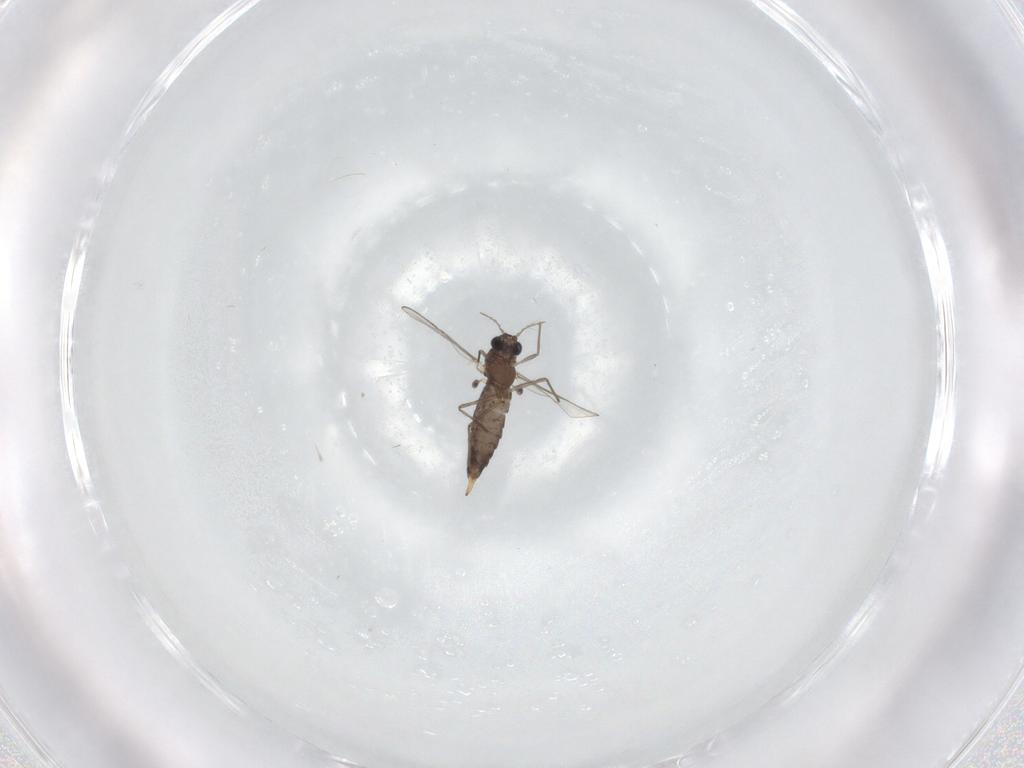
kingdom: Animalia
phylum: Arthropoda
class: Insecta
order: Diptera
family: Chironomidae
